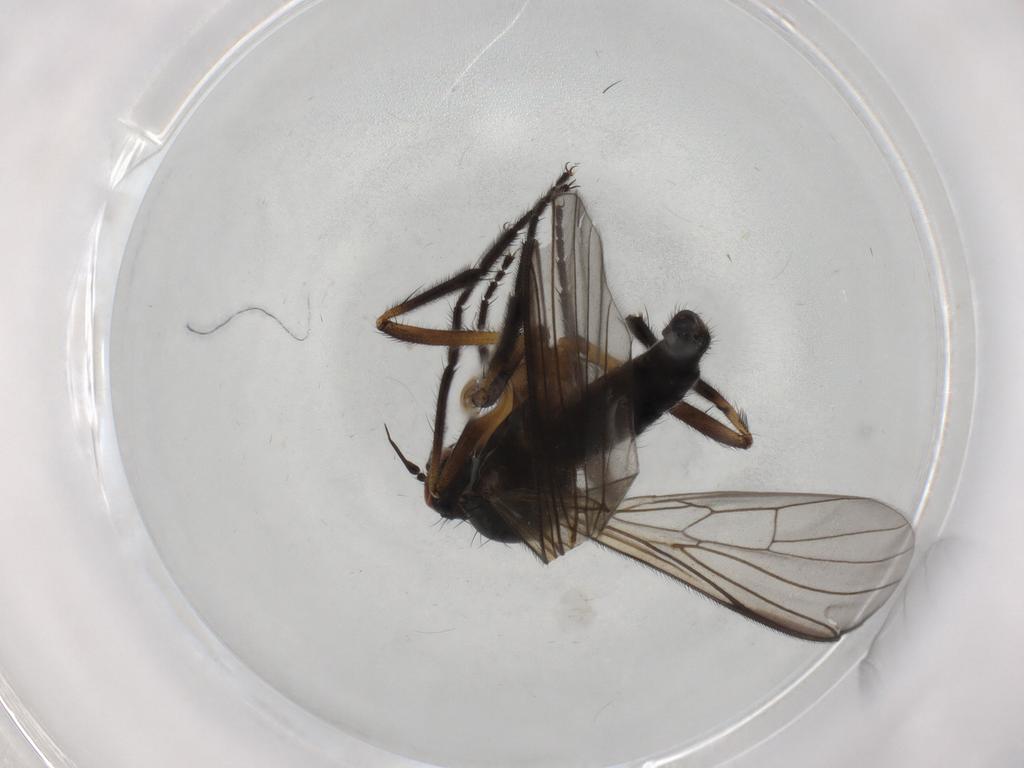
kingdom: Animalia
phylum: Arthropoda
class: Insecta
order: Diptera
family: Empididae
